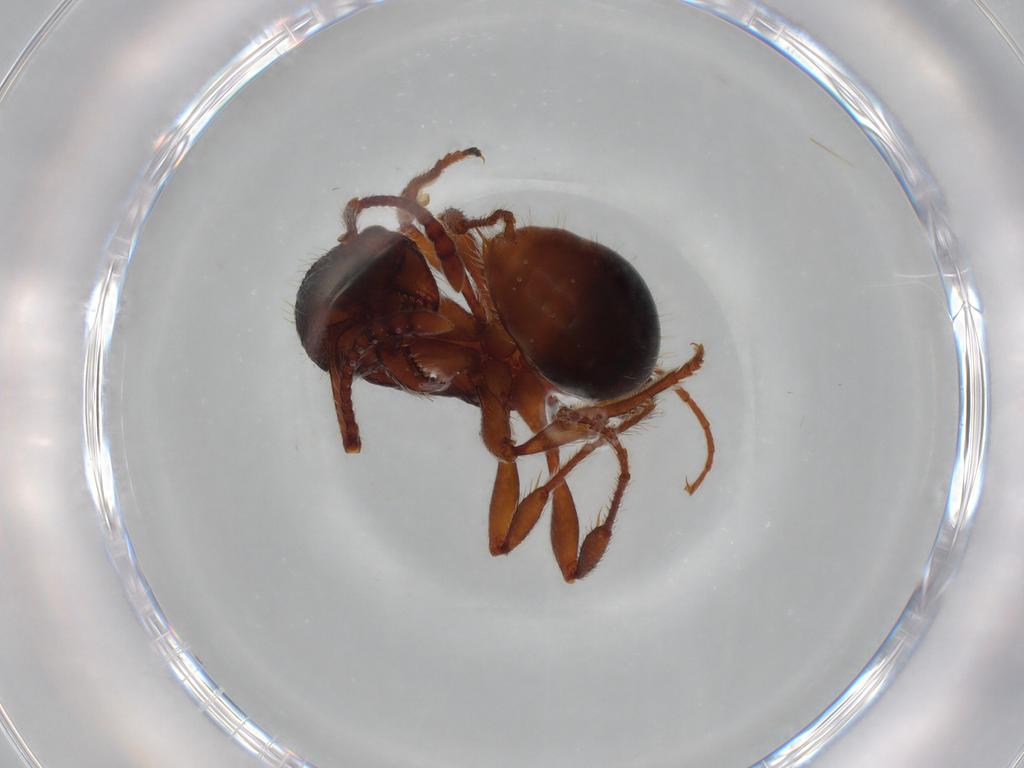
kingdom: Animalia
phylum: Arthropoda
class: Insecta
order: Hymenoptera
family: Formicidae
